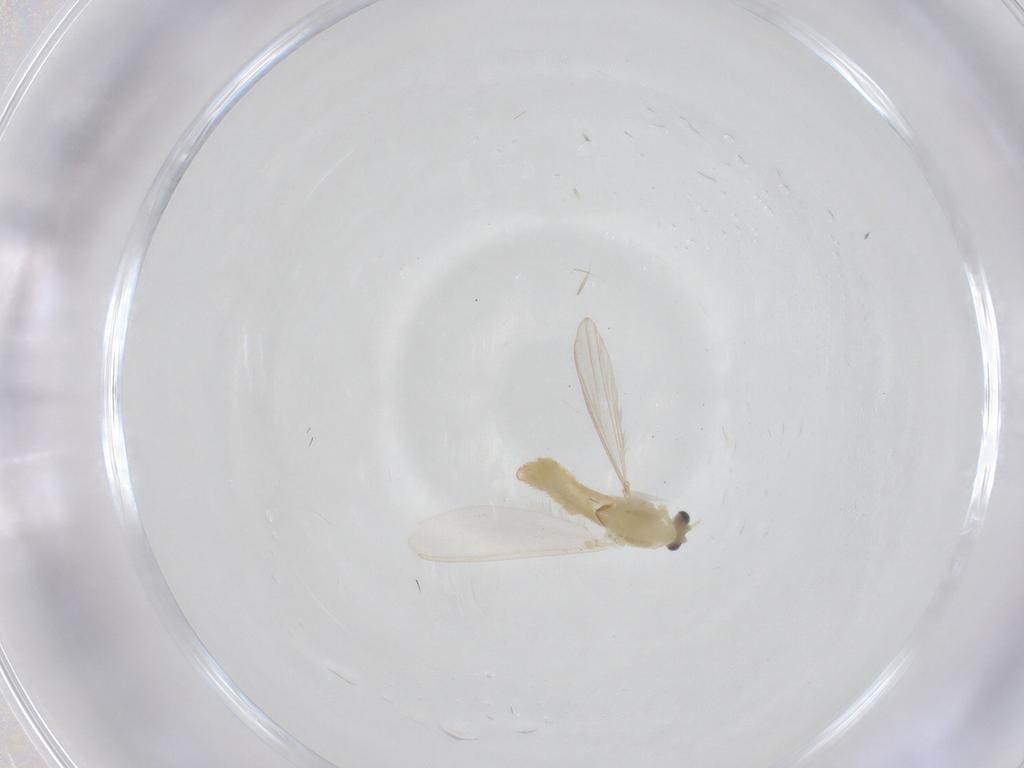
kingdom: Animalia
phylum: Arthropoda
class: Insecta
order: Diptera
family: Chironomidae
